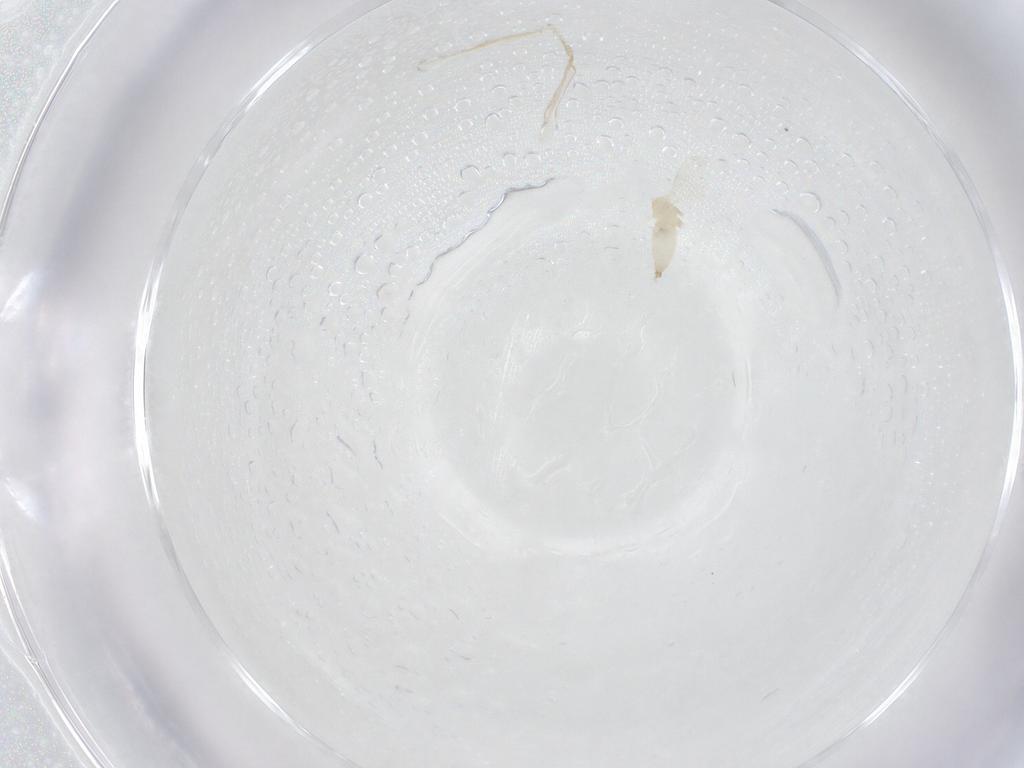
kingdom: Animalia
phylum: Arthropoda
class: Insecta
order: Diptera
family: Cecidomyiidae
